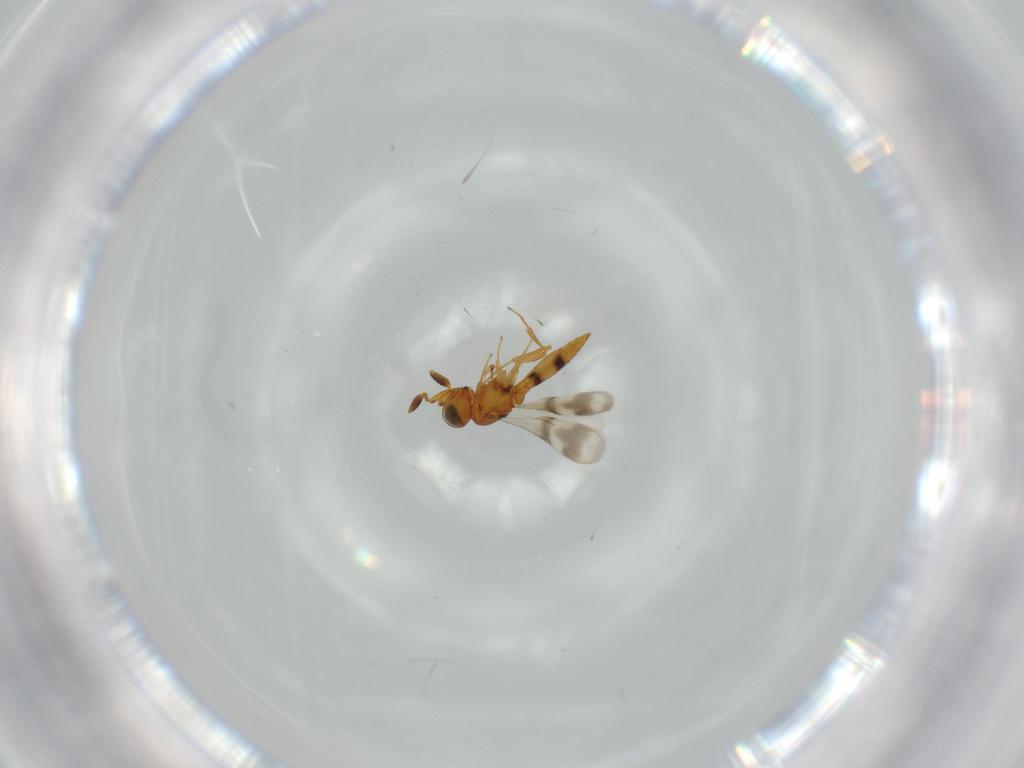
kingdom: Animalia
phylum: Arthropoda
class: Insecta
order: Hymenoptera
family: Scelionidae
